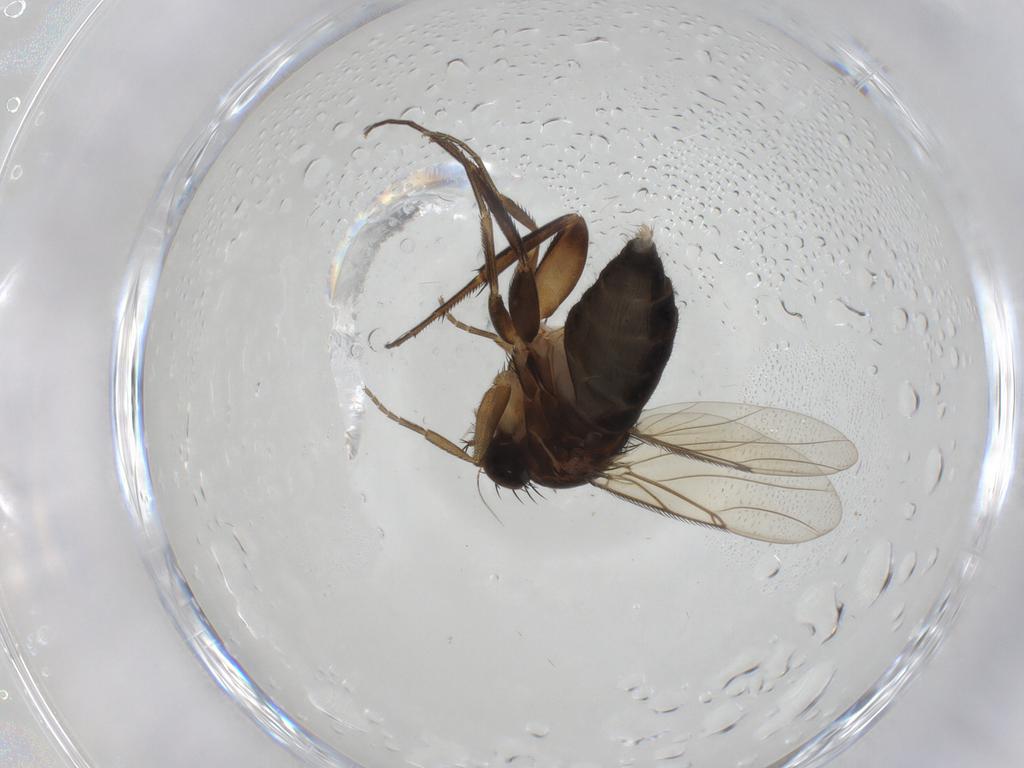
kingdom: Animalia
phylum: Arthropoda
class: Insecta
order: Diptera
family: Phoridae
